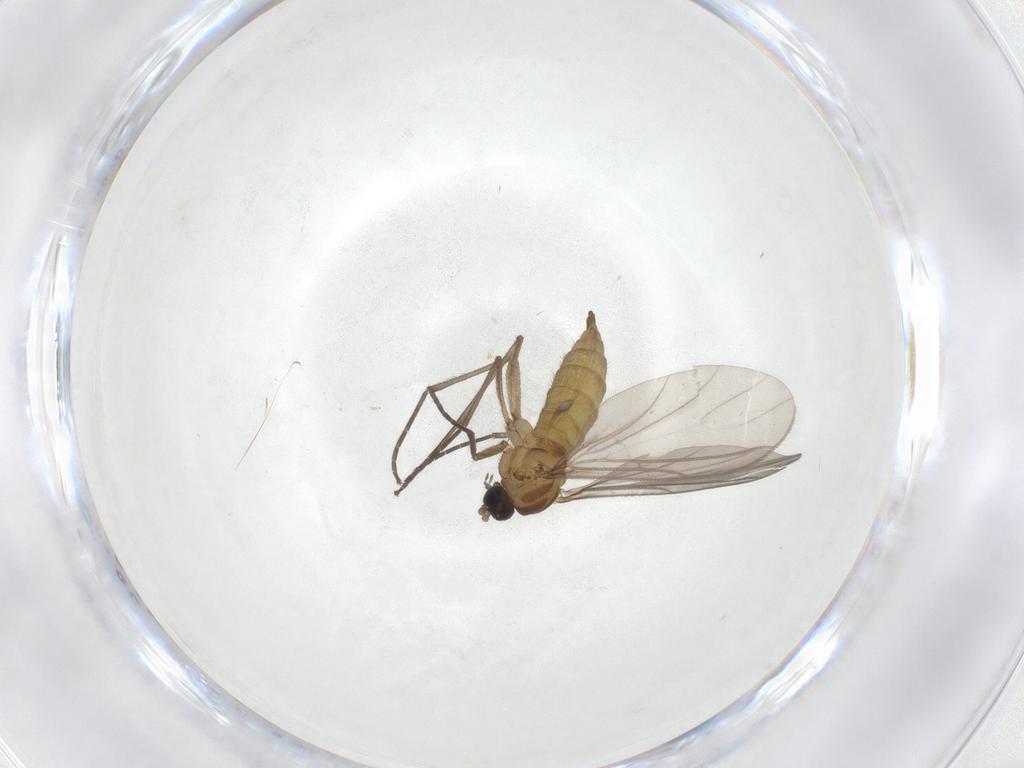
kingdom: Animalia
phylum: Arthropoda
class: Insecta
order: Diptera
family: Sciaridae
